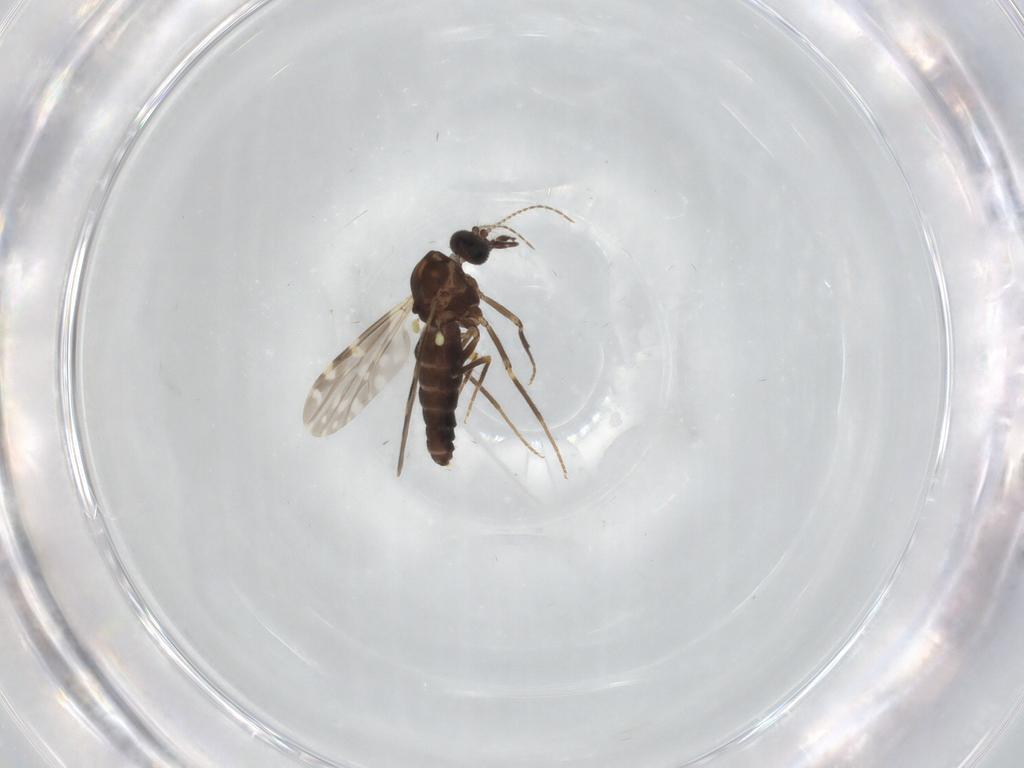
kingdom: Animalia
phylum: Arthropoda
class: Insecta
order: Diptera
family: Ceratopogonidae
